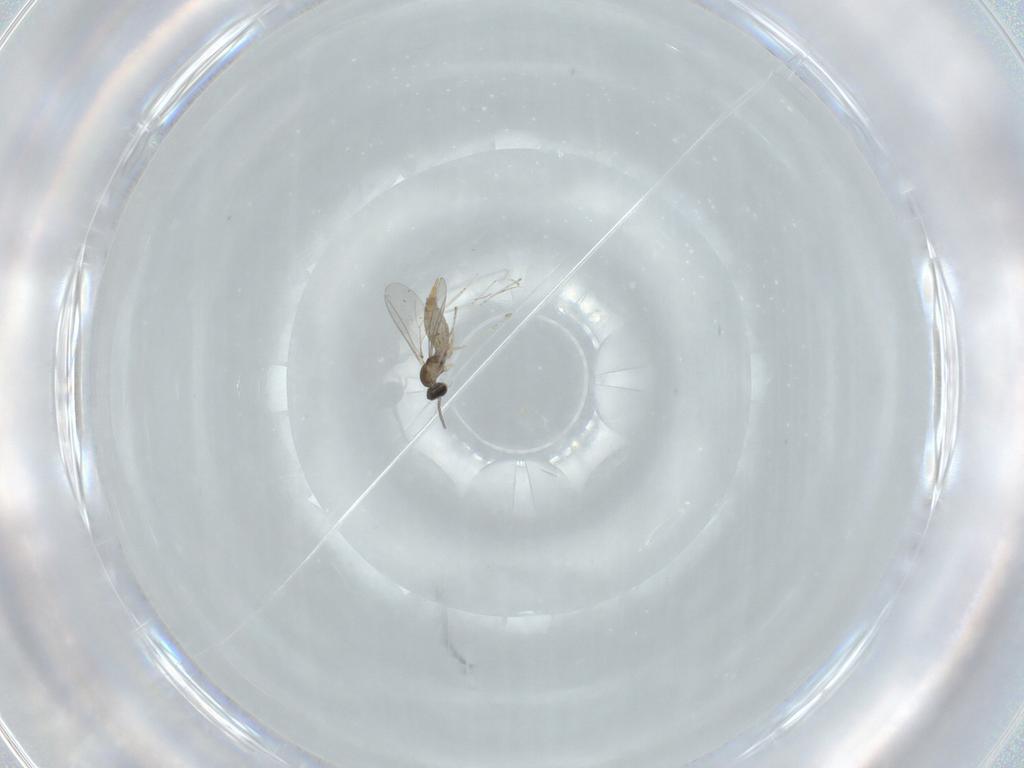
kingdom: Animalia
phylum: Arthropoda
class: Insecta
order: Diptera
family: Cecidomyiidae
